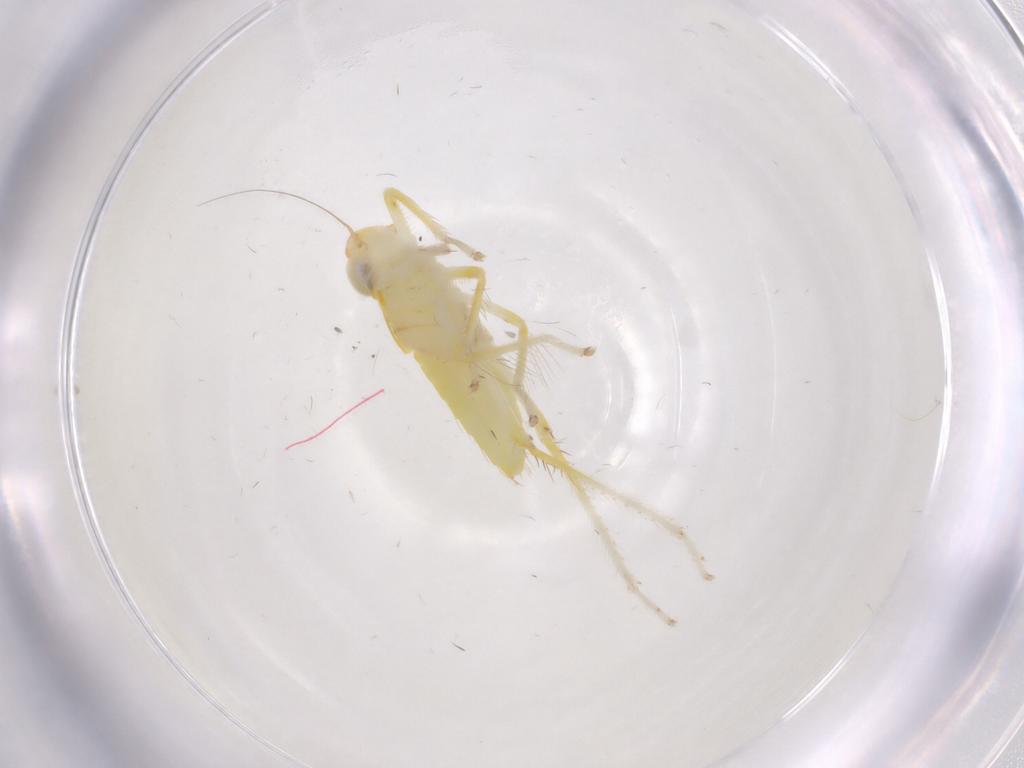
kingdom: Animalia
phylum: Arthropoda
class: Insecta
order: Hemiptera
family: Cicadellidae
